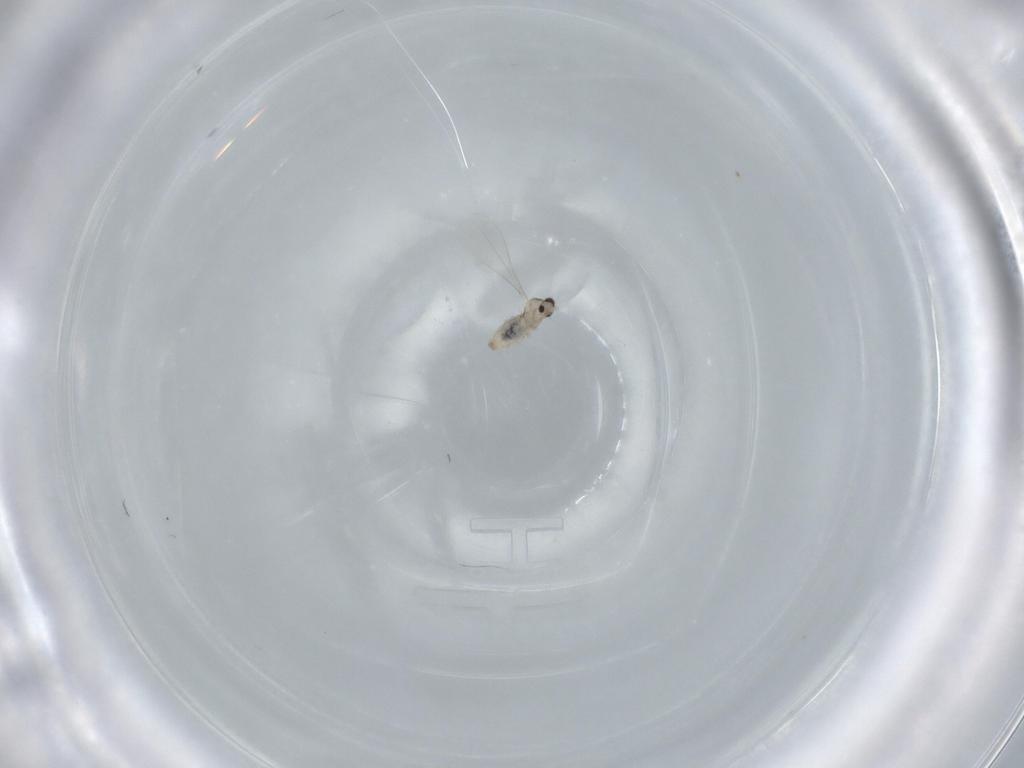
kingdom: Animalia
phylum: Arthropoda
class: Insecta
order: Diptera
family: Cecidomyiidae
